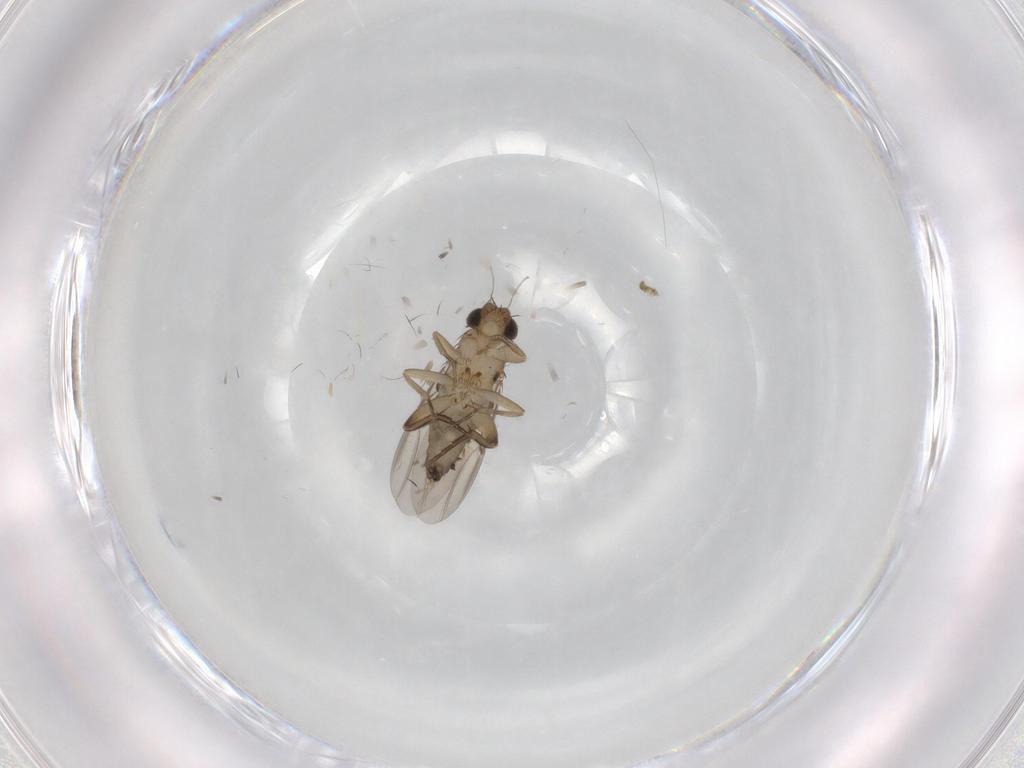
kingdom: Animalia
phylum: Arthropoda
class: Insecta
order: Diptera
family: Phoridae
